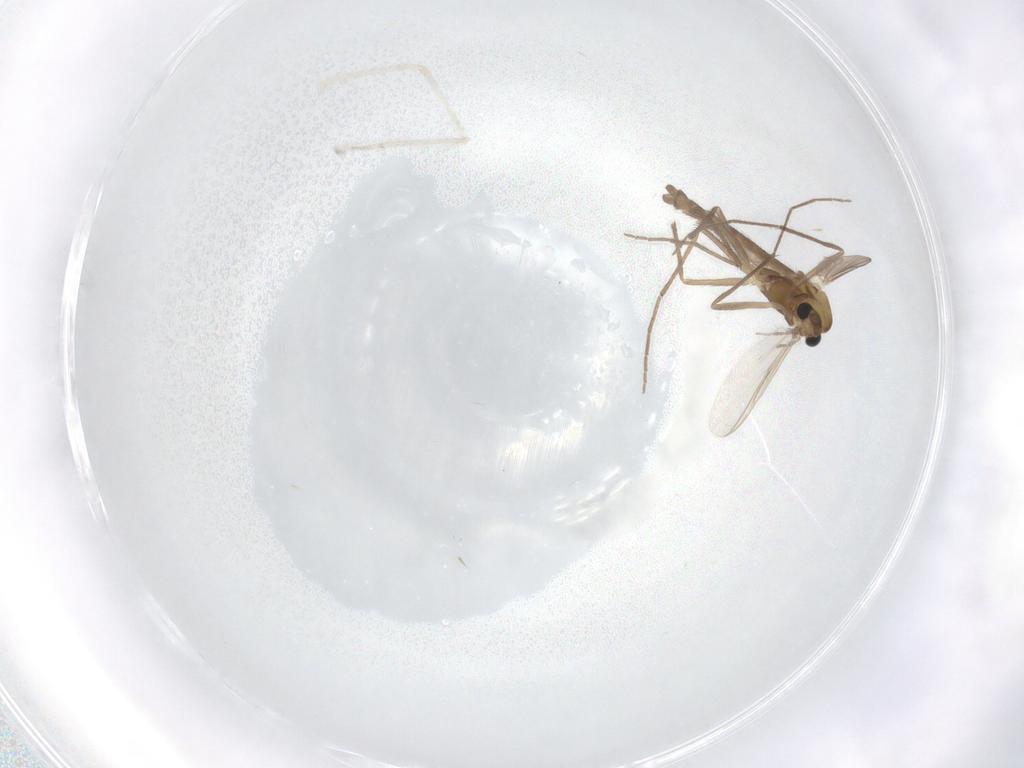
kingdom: Animalia
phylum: Arthropoda
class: Insecta
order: Diptera
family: Chironomidae
